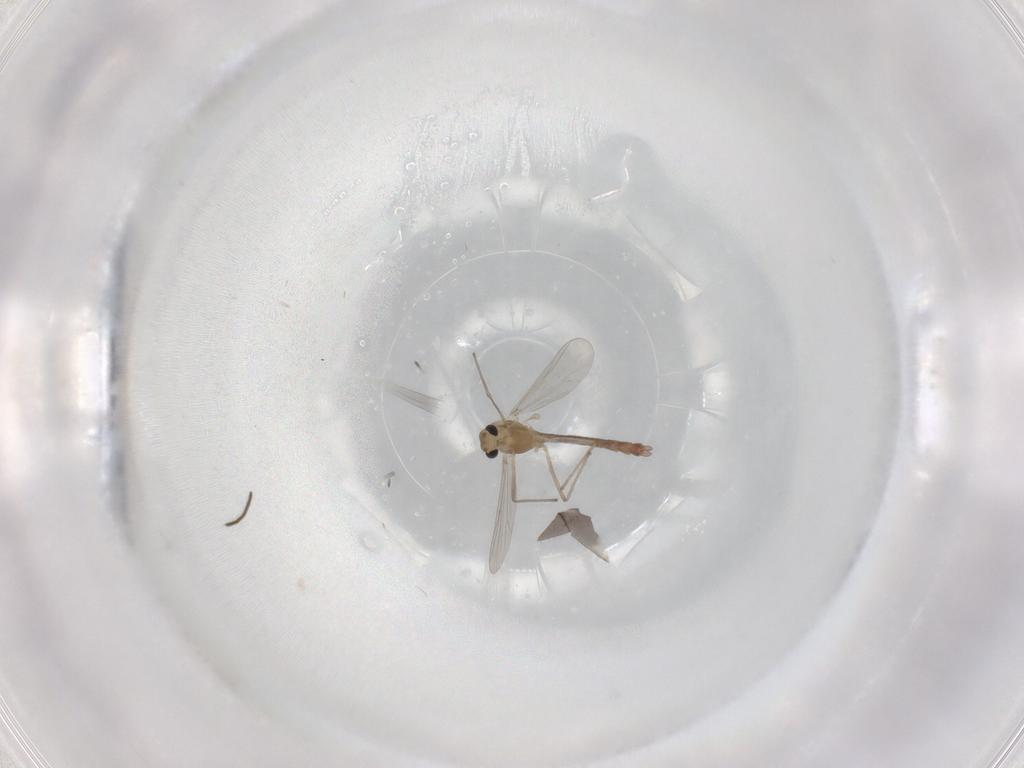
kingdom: Animalia
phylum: Arthropoda
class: Insecta
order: Diptera
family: Chironomidae
